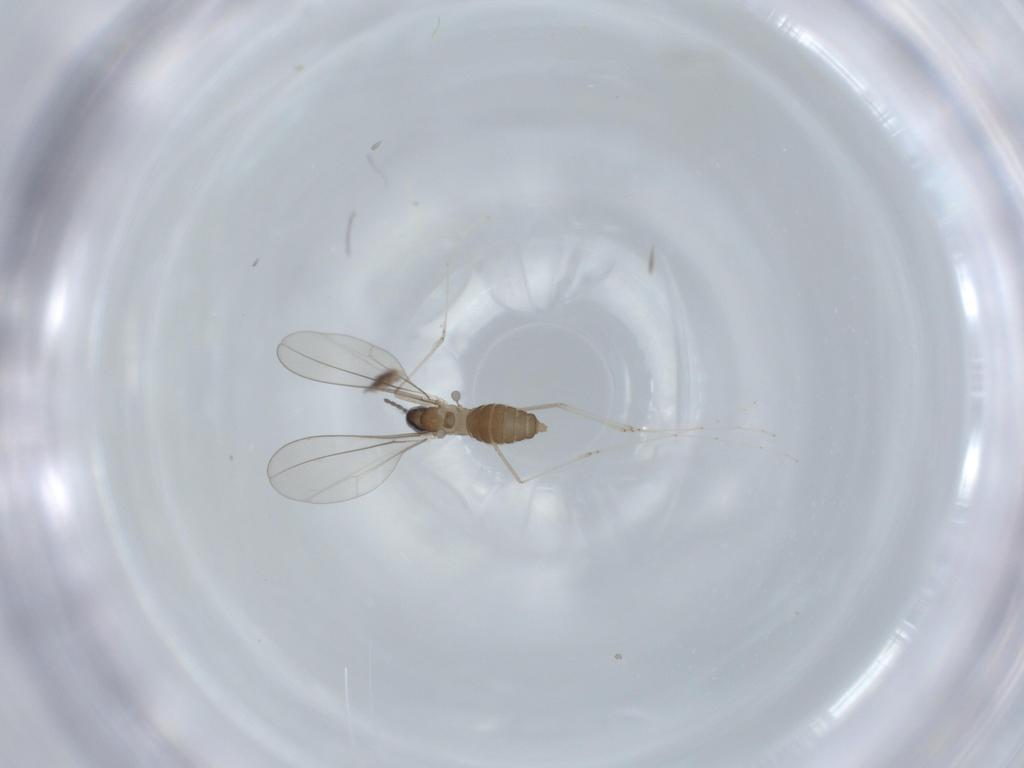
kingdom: Animalia
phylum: Arthropoda
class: Insecta
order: Diptera
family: Cecidomyiidae
